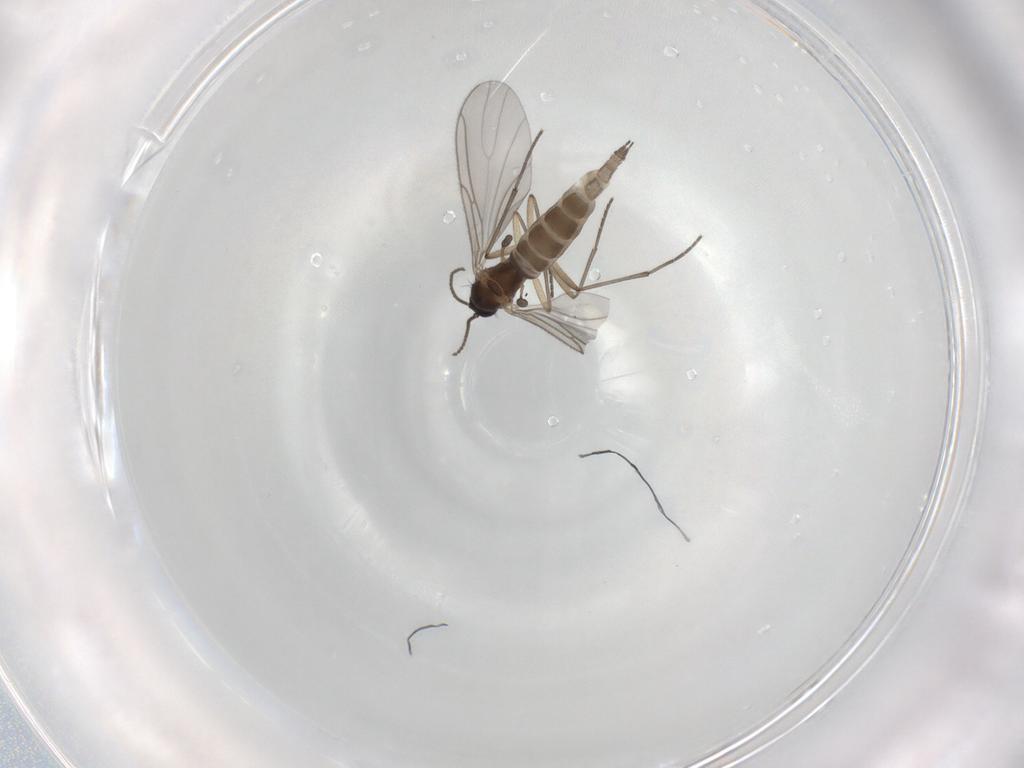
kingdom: Animalia
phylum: Arthropoda
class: Insecta
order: Diptera
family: Sciaridae
